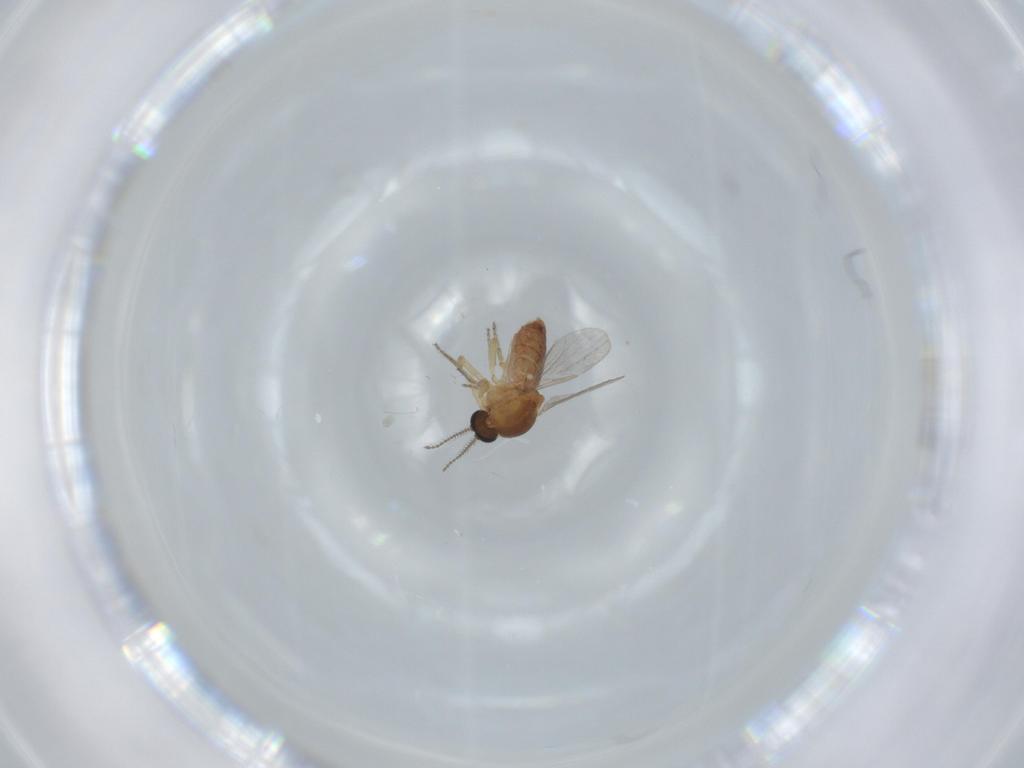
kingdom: Animalia
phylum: Arthropoda
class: Insecta
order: Diptera
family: Ceratopogonidae
